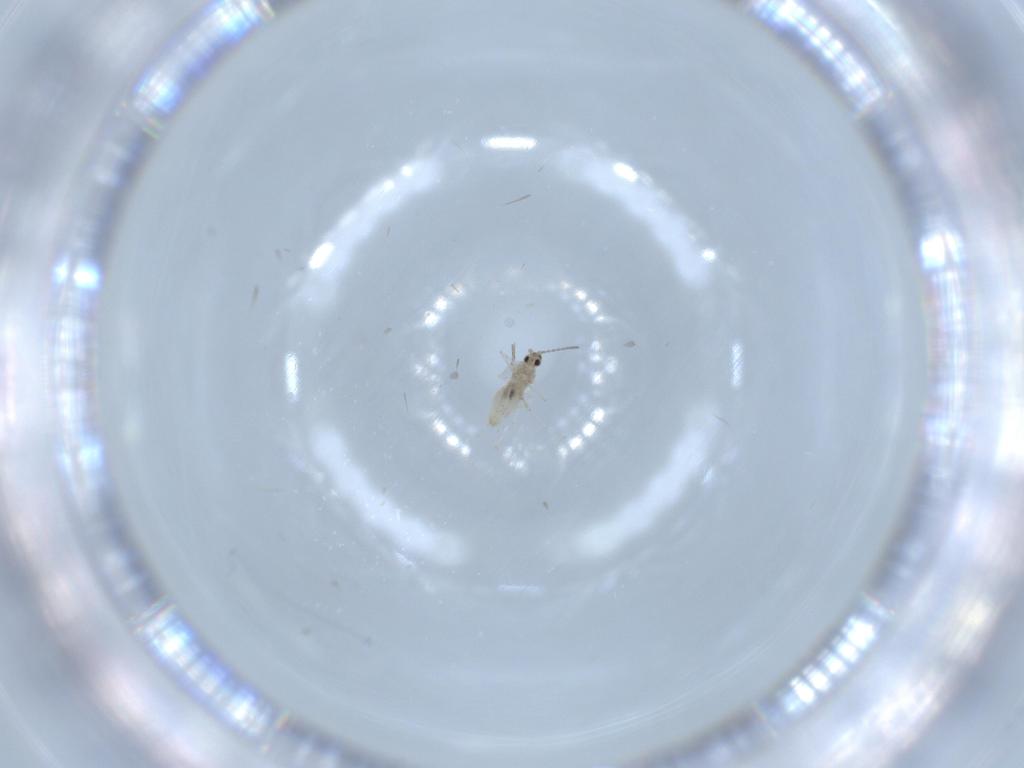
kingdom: Animalia
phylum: Arthropoda
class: Insecta
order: Diptera
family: Cecidomyiidae
